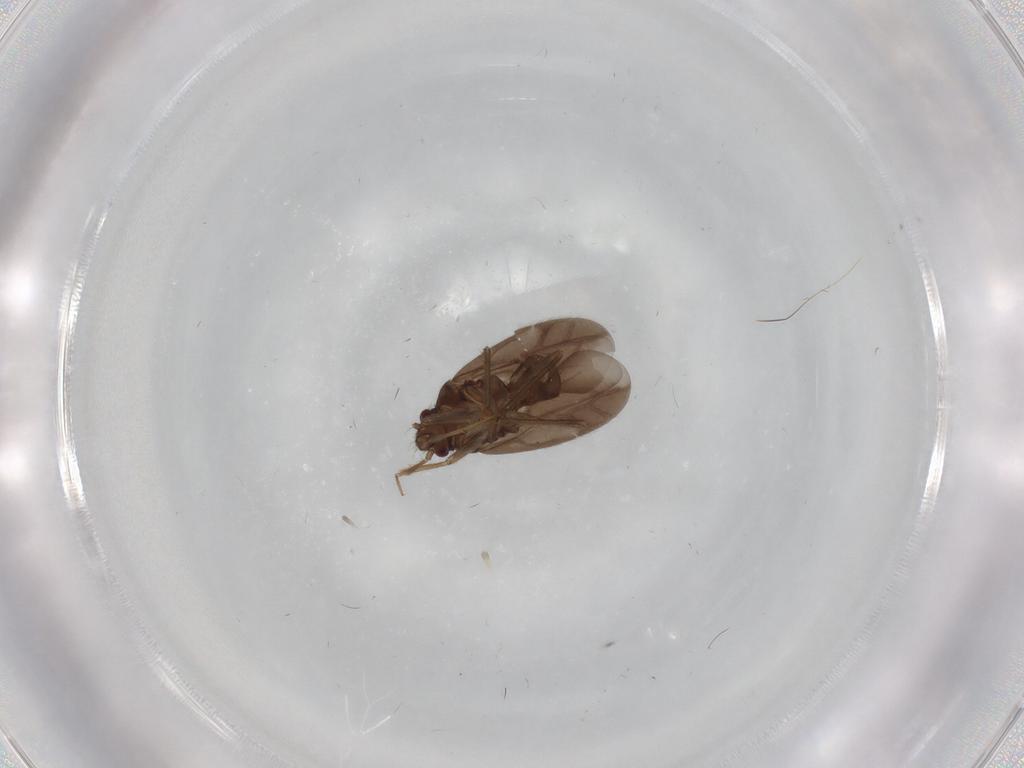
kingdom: Animalia
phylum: Arthropoda
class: Insecta
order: Hemiptera
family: Ceratocombidae
